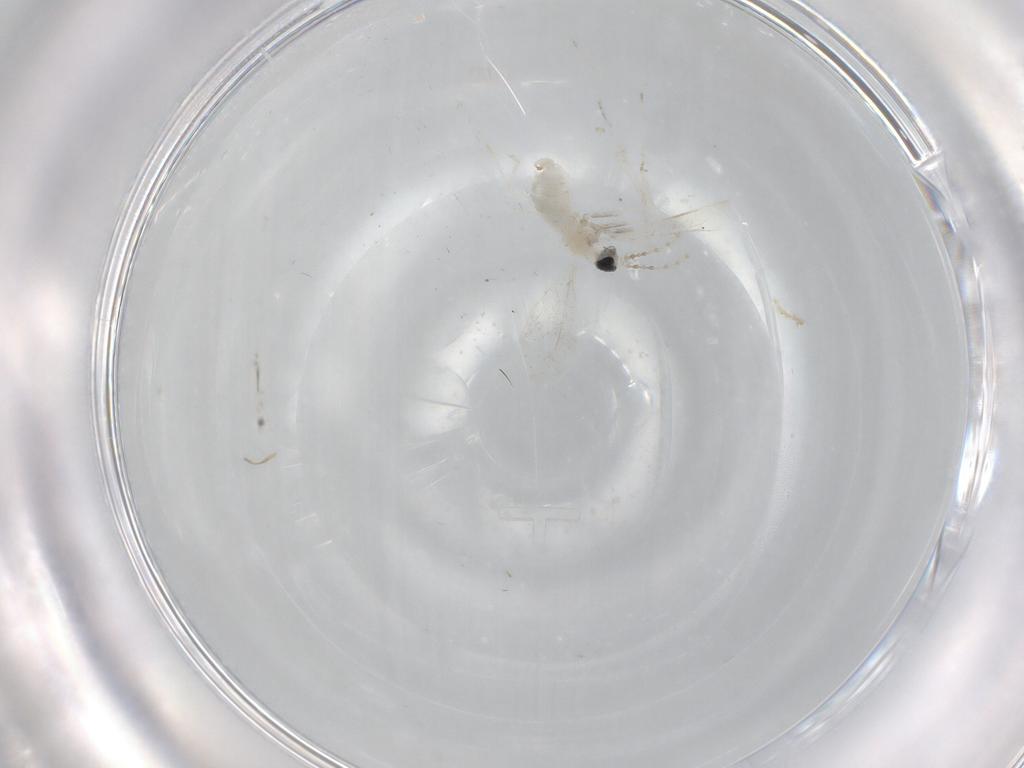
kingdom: Animalia
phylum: Arthropoda
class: Insecta
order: Diptera
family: Cecidomyiidae
